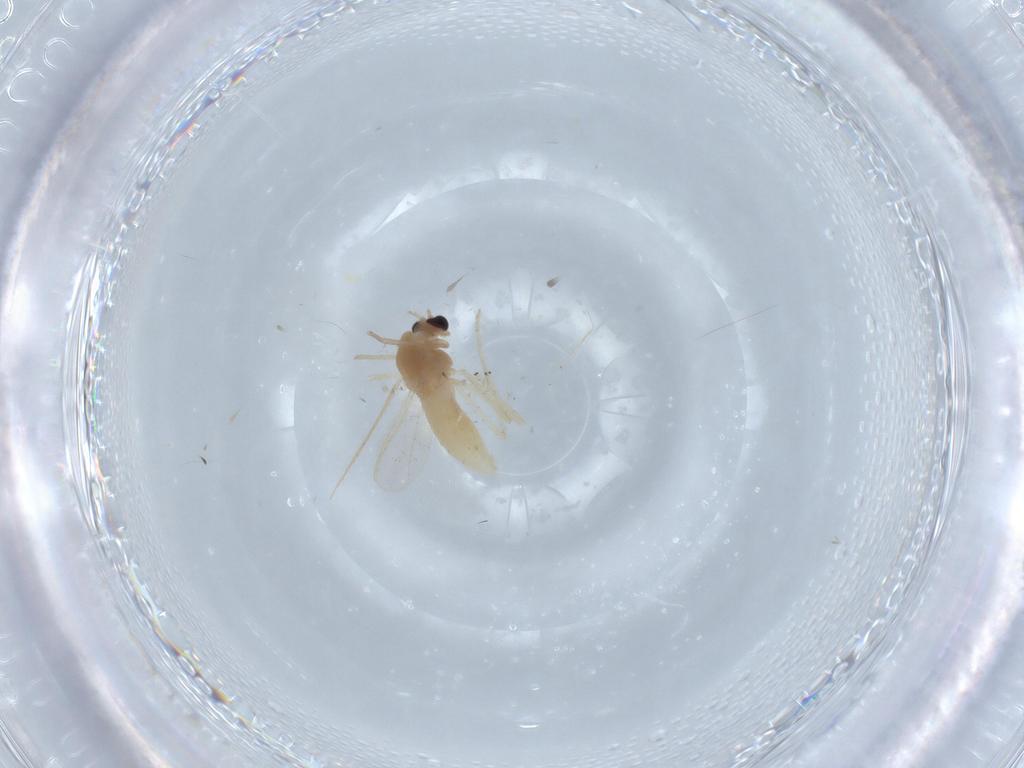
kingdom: Animalia
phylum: Arthropoda
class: Insecta
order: Diptera
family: Chironomidae
